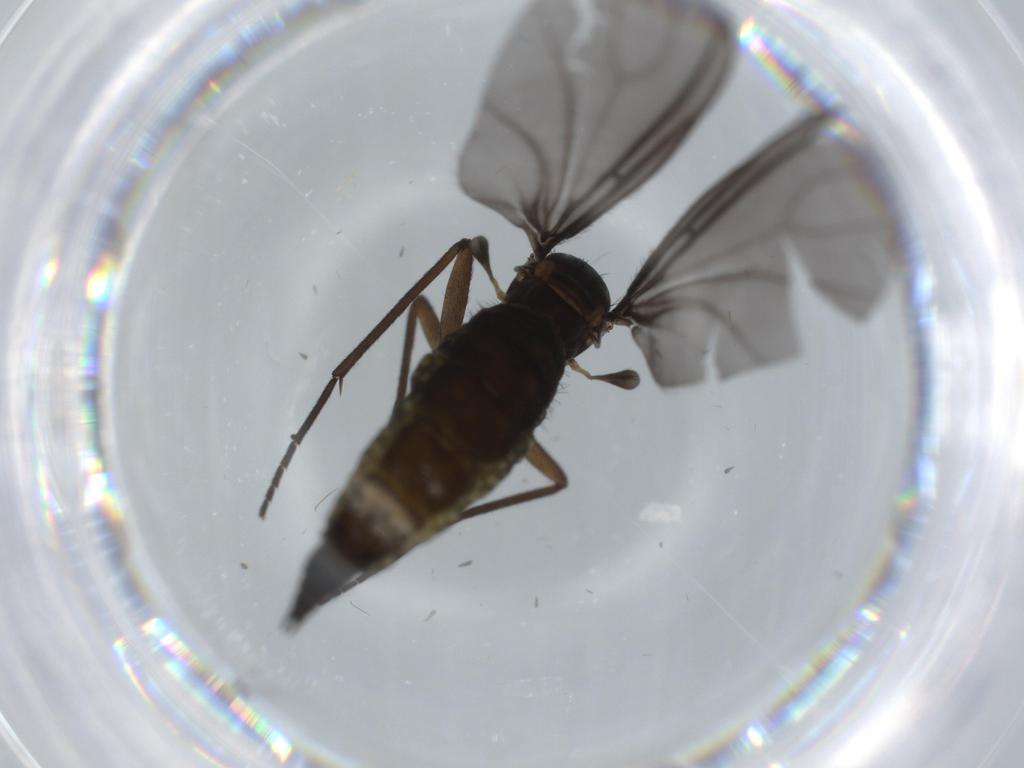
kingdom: Animalia
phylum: Arthropoda
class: Insecta
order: Diptera
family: Sciaridae
